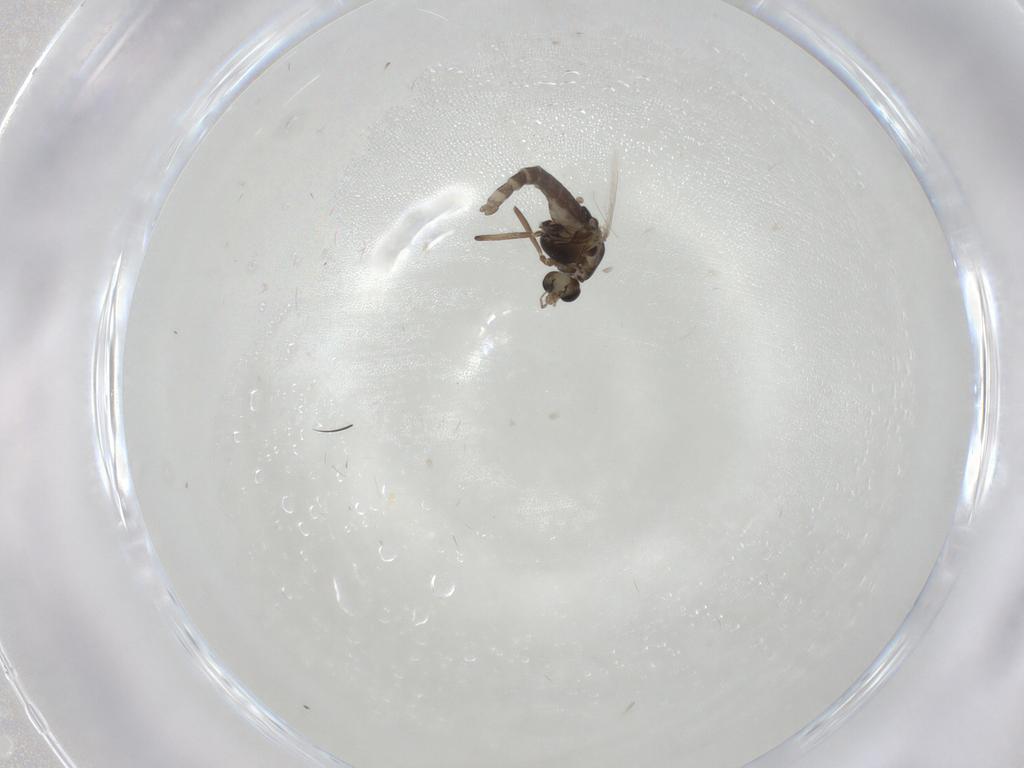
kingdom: Animalia
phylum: Arthropoda
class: Insecta
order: Diptera
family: Chironomidae
